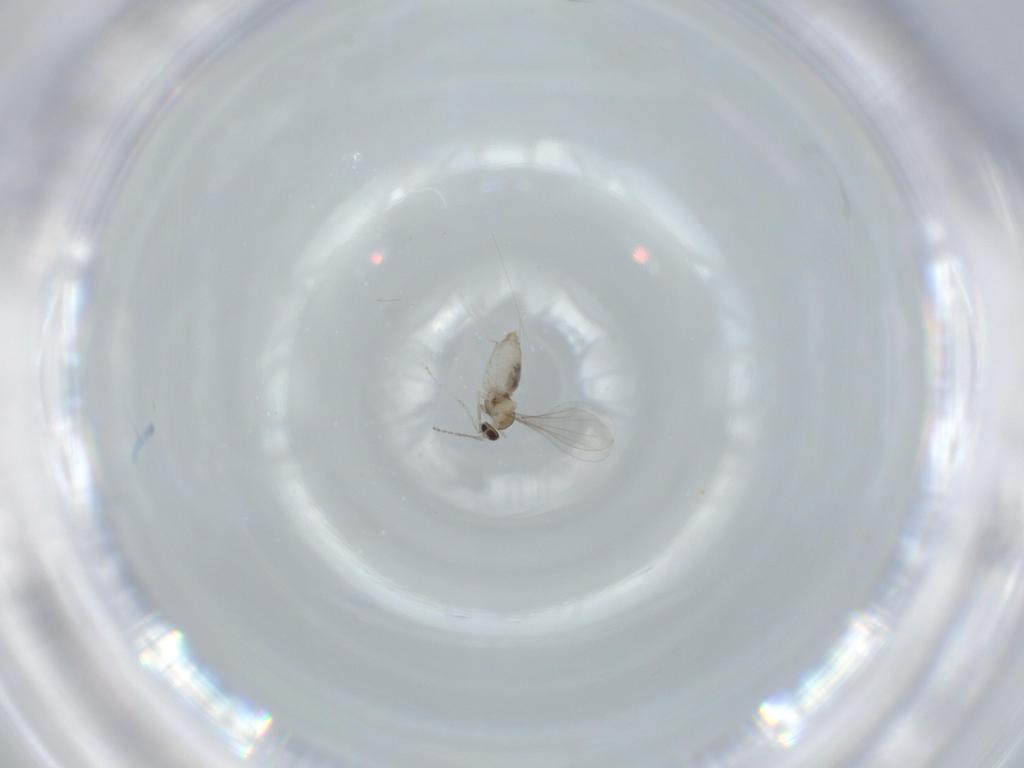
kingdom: Animalia
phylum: Arthropoda
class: Insecta
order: Diptera
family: Cecidomyiidae
